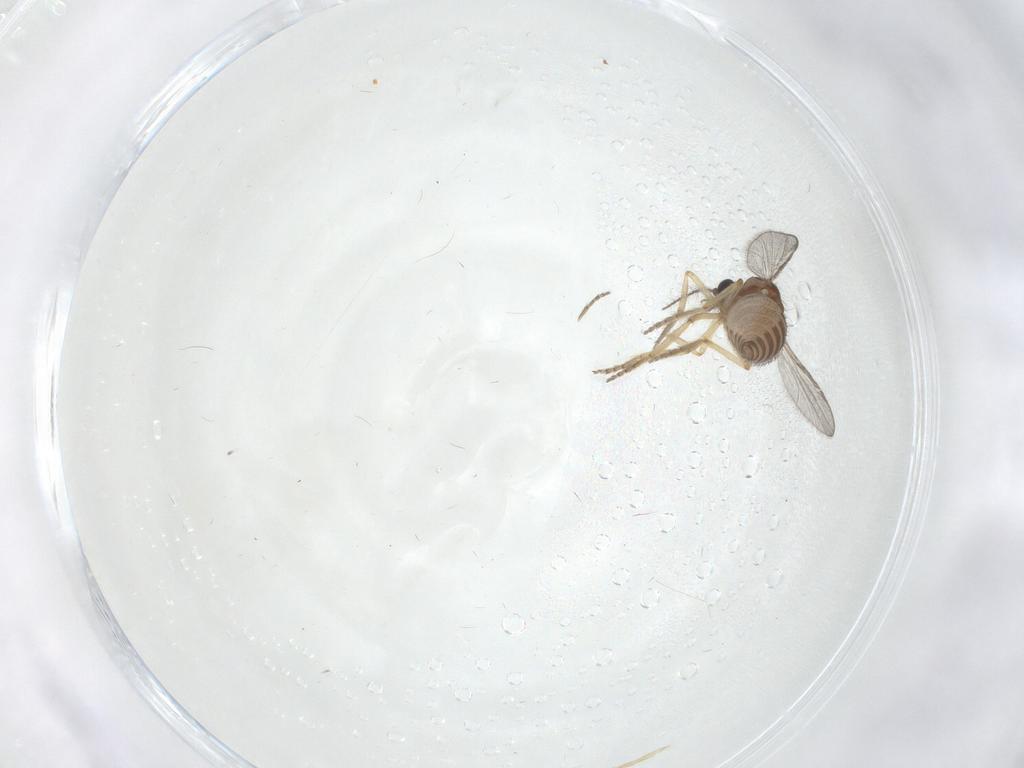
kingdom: Animalia
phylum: Arthropoda
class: Insecta
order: Diptera
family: Ceratopogonidae
